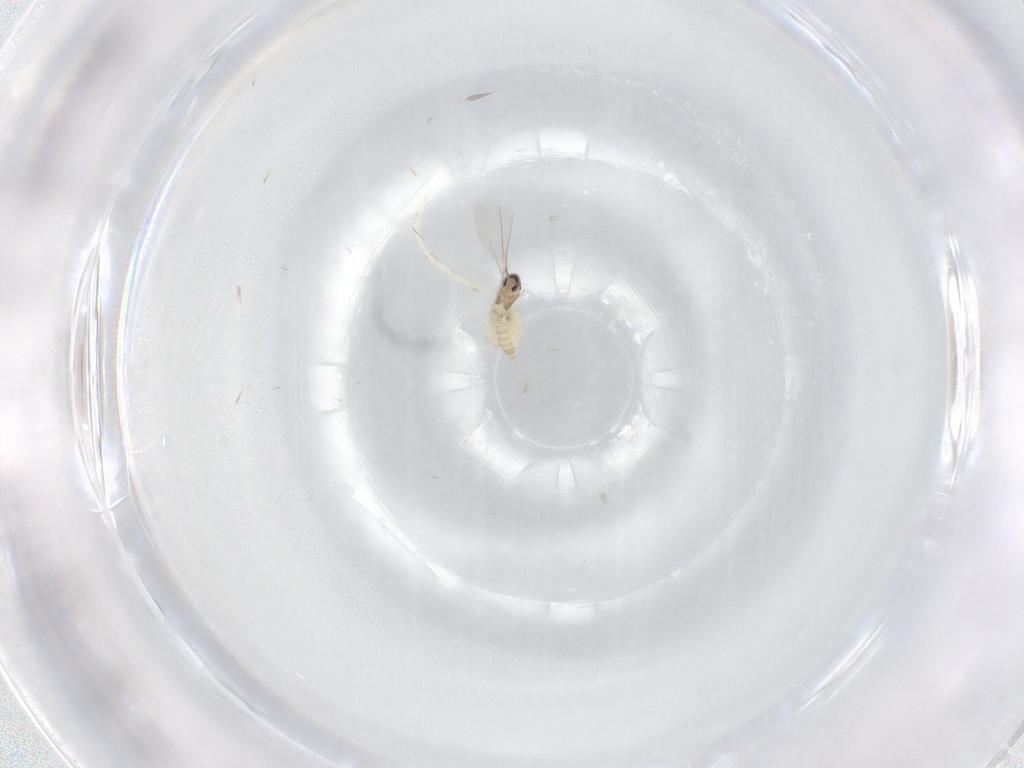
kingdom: Animalia
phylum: Arthropoda
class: Insecta
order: Diptera
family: Cecidomyiidae
